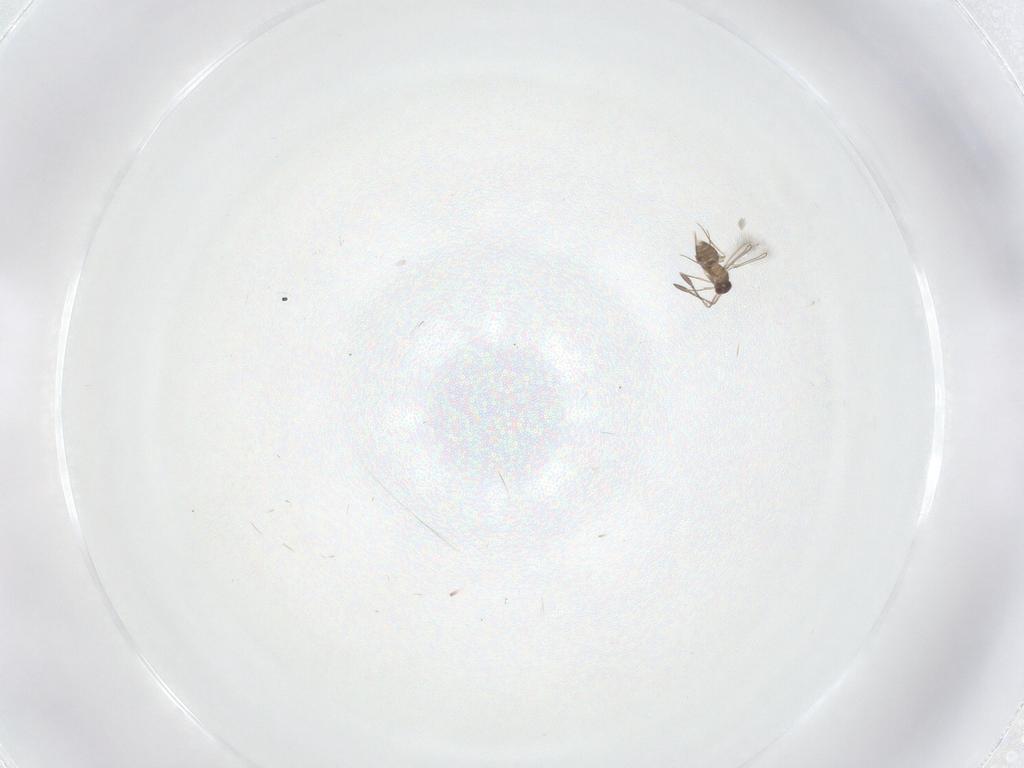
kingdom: Animalia
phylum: Arthropoda
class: Insecta
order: Hymenoptera
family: Mymaridae
